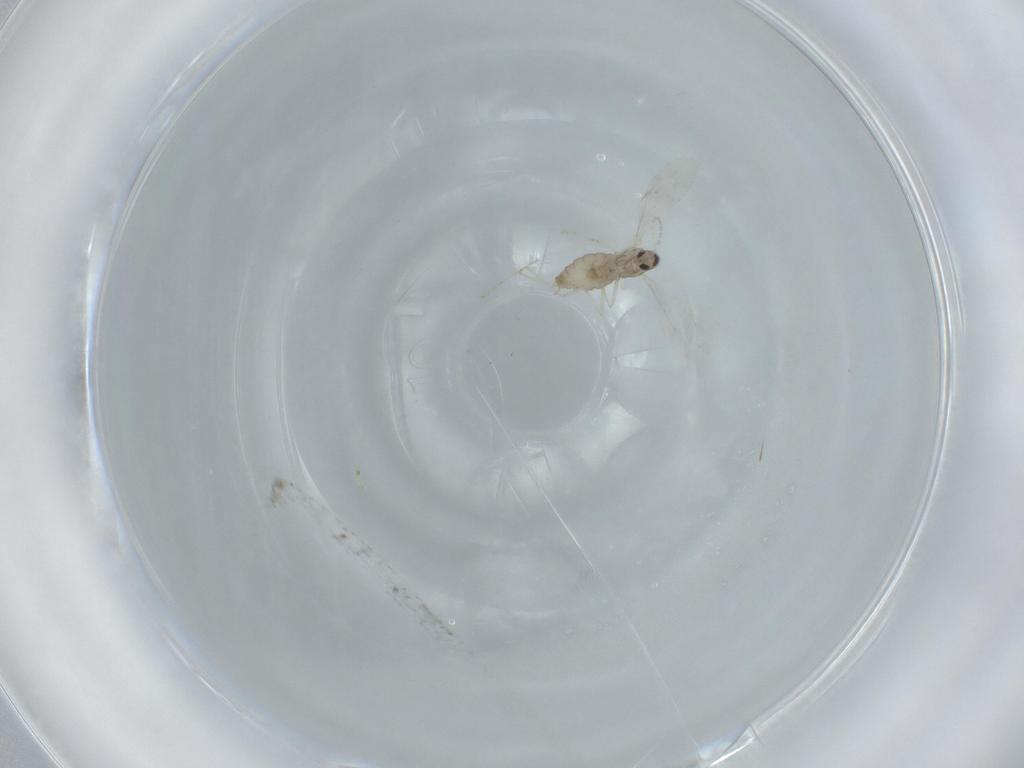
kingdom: Animalia
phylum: Arthropoda
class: Insecta
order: Diptera
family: Cecidomyiidae
